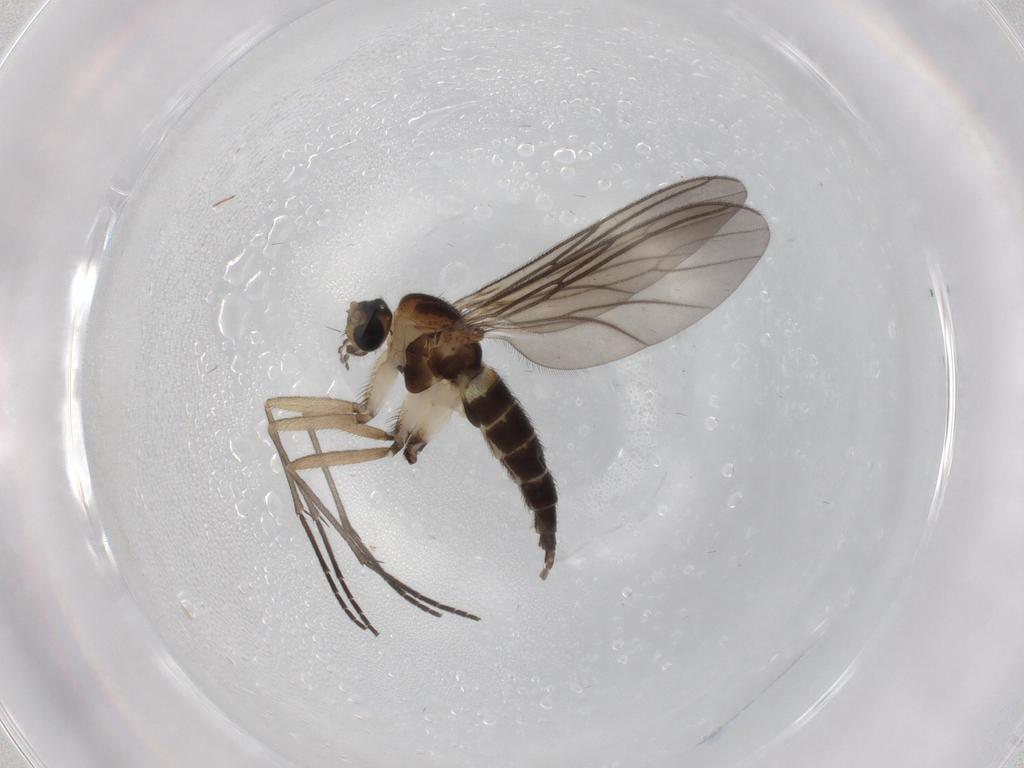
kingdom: Animalia
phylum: Arthropoda
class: Insecta
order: Diptera
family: Sciaridae
